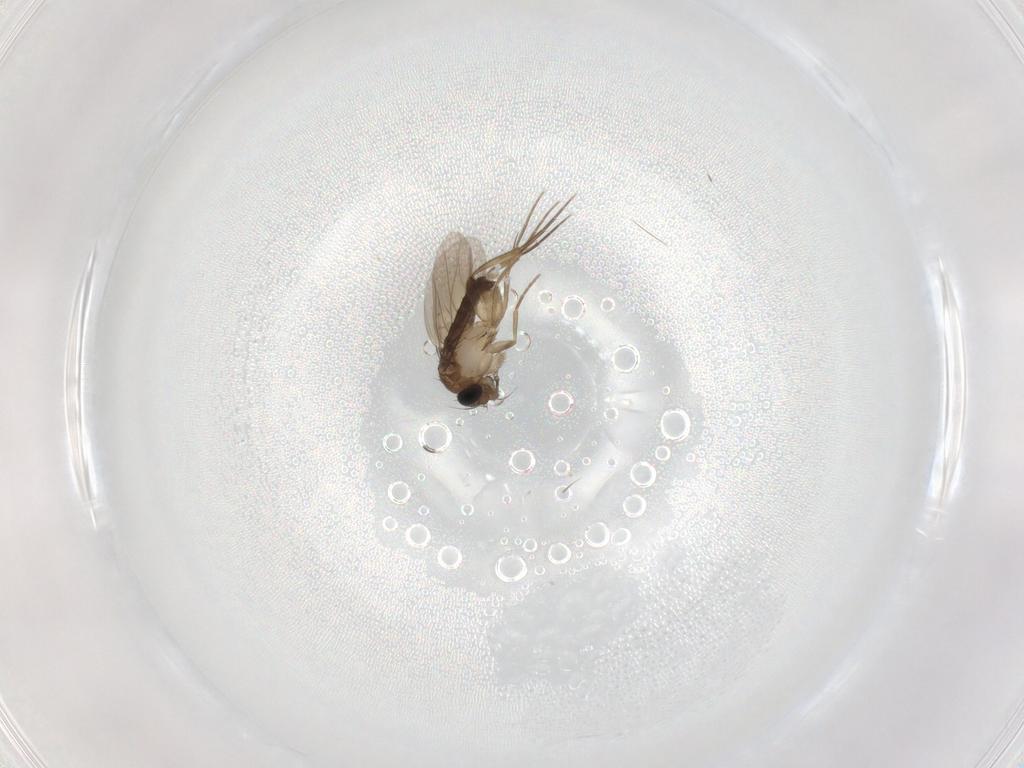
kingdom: Animalia
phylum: Arthropoda
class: Insecta
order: Diptera
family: Phoridae
